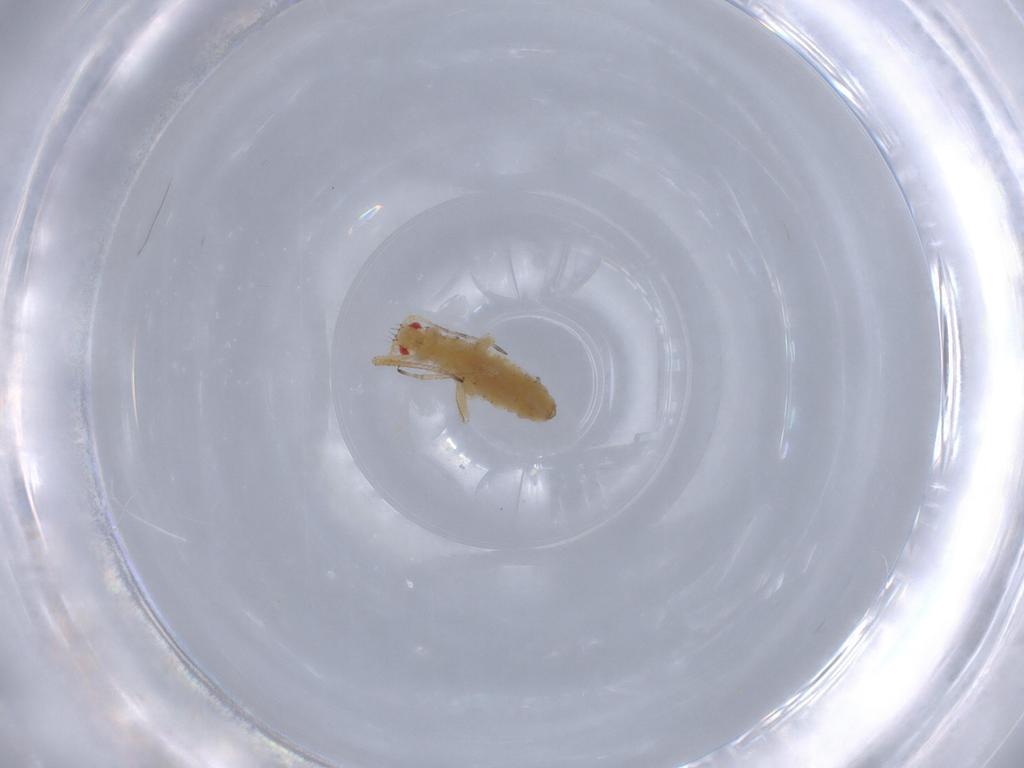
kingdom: Animalia
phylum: Arthropoda
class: Insecta
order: Hemiptera
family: Aphididae
